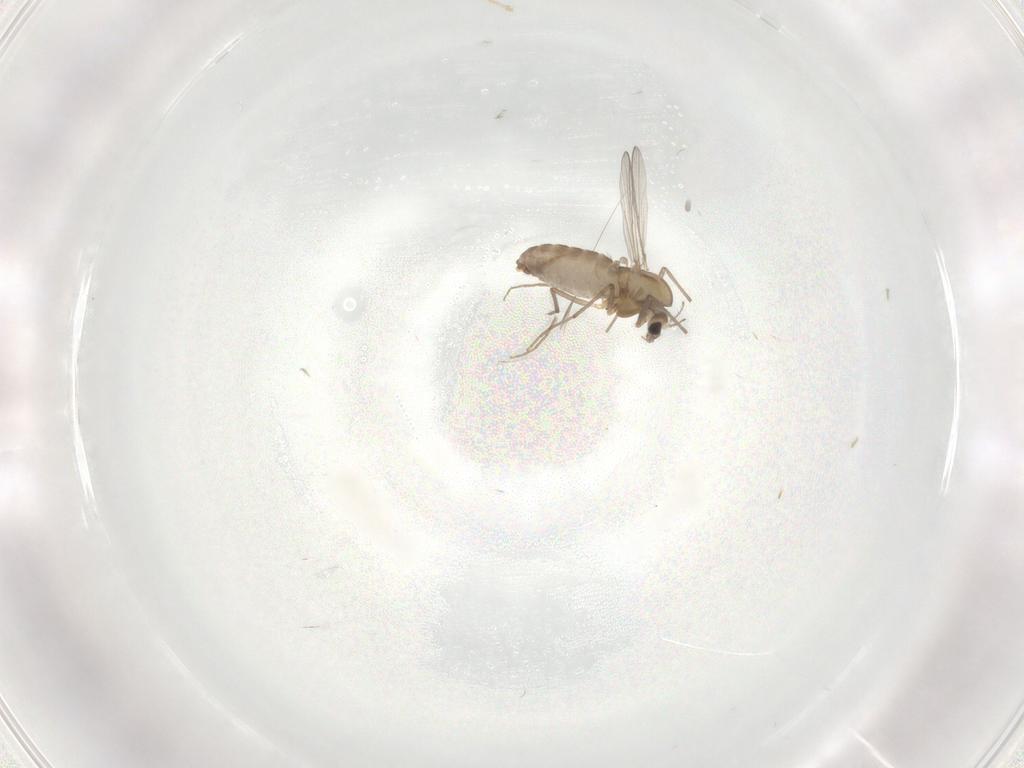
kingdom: Animalia
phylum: Arthropoda
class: Insecta
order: Diptera
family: Chironomidae
